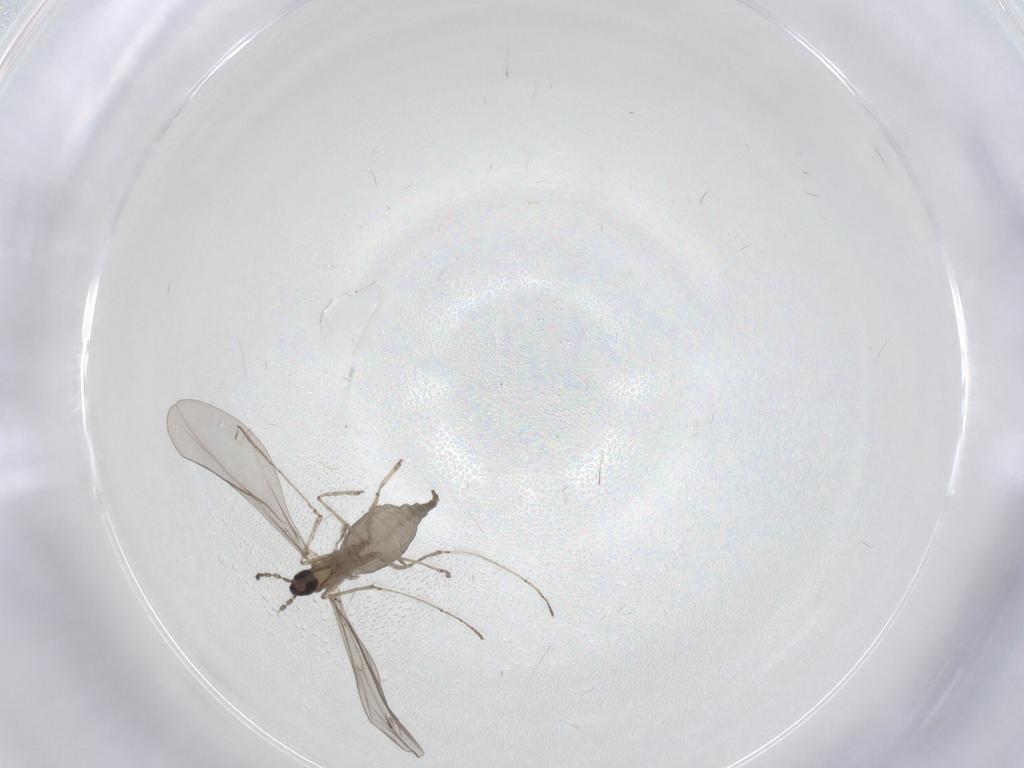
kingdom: Animalia
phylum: Arthropoda
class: Insecta
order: Diptera
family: Cecidomyiidae
